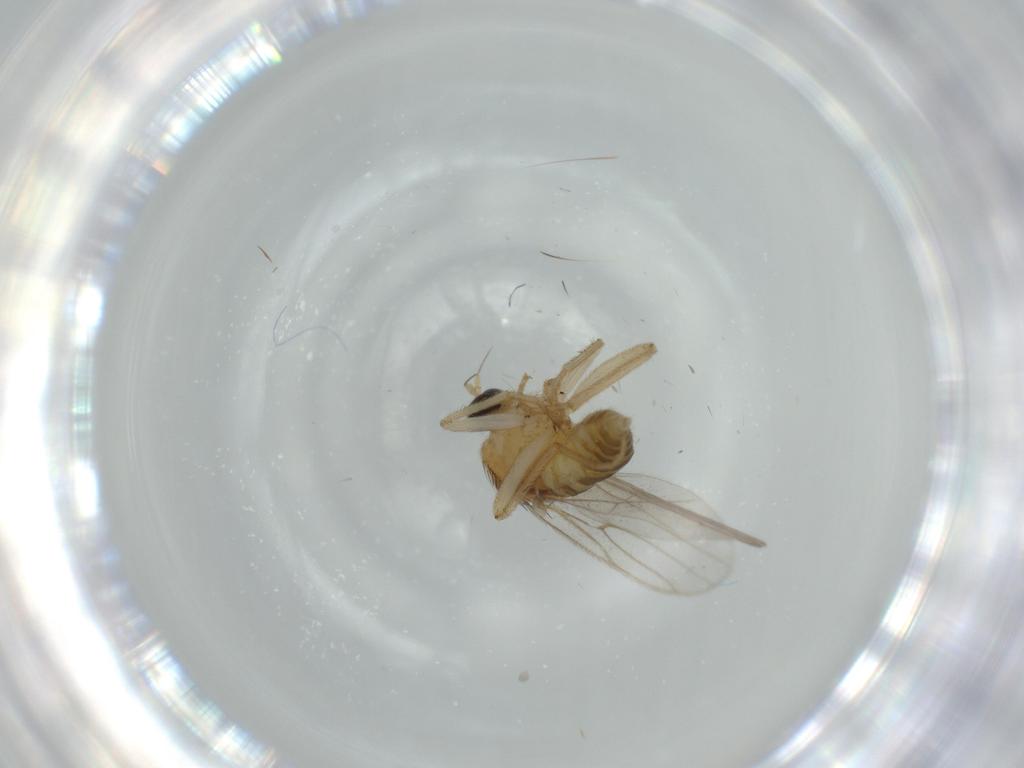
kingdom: Animalia
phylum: Arthropoda
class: Insecta
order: Diptera
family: Hybotidae
